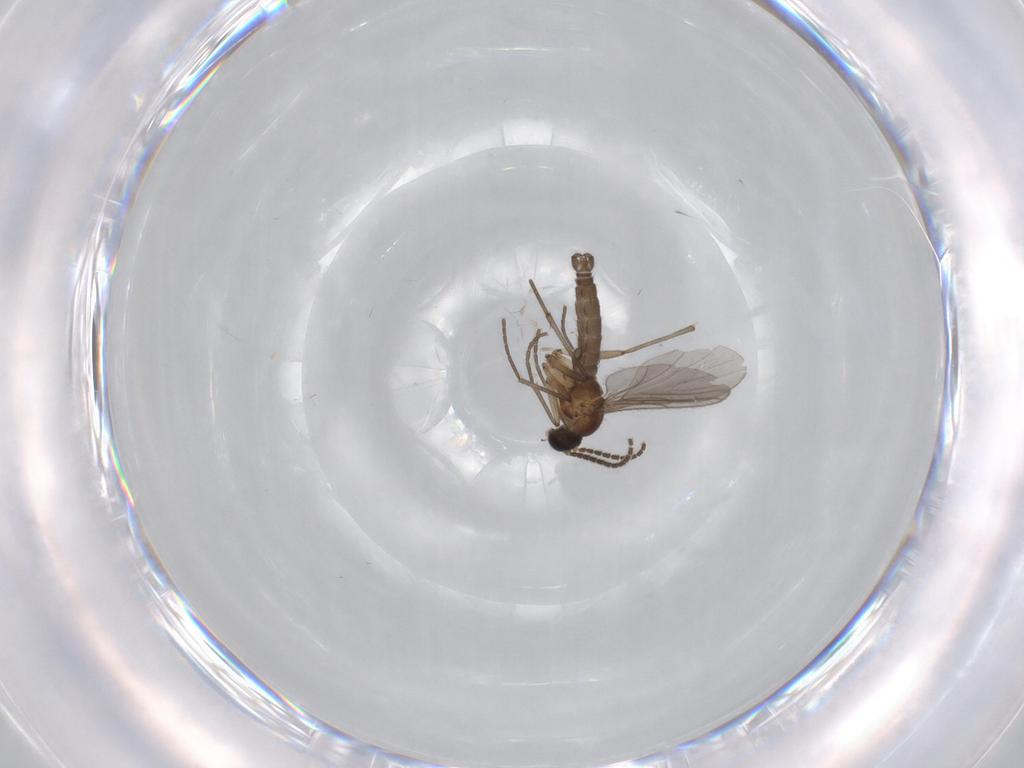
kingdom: Animalia
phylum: Arthropoda
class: Insecta
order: Diptera
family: Sciaridae
